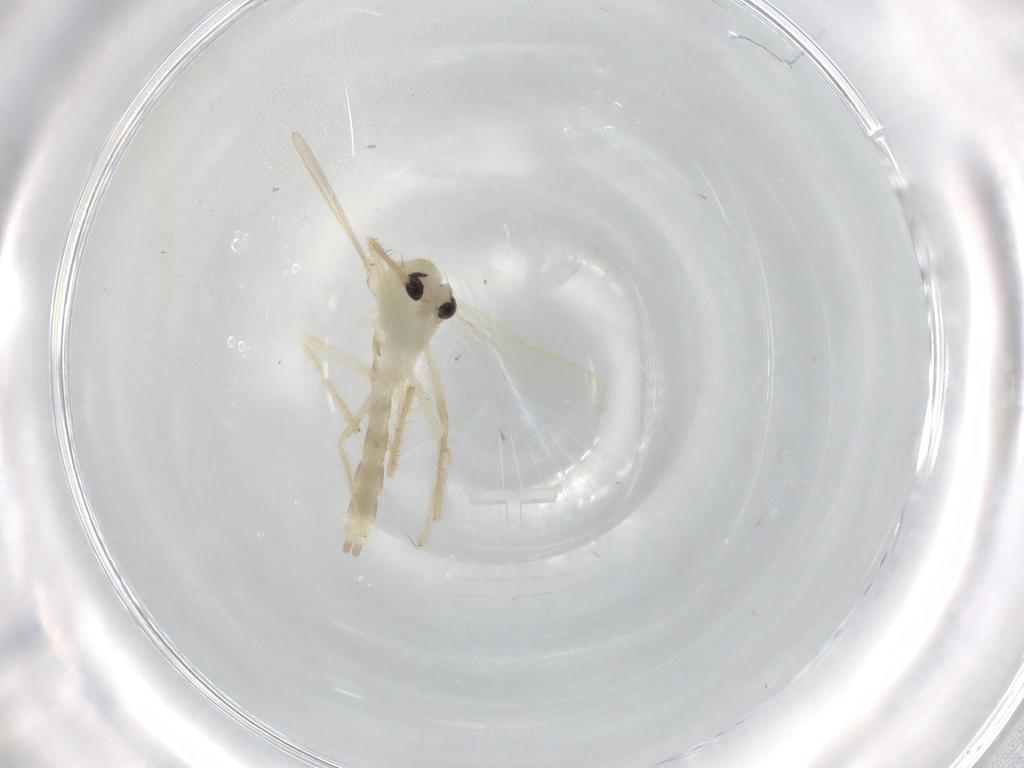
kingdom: Animalia
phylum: Arthropoda
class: Insecta
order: Diptera
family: Chironomidae
